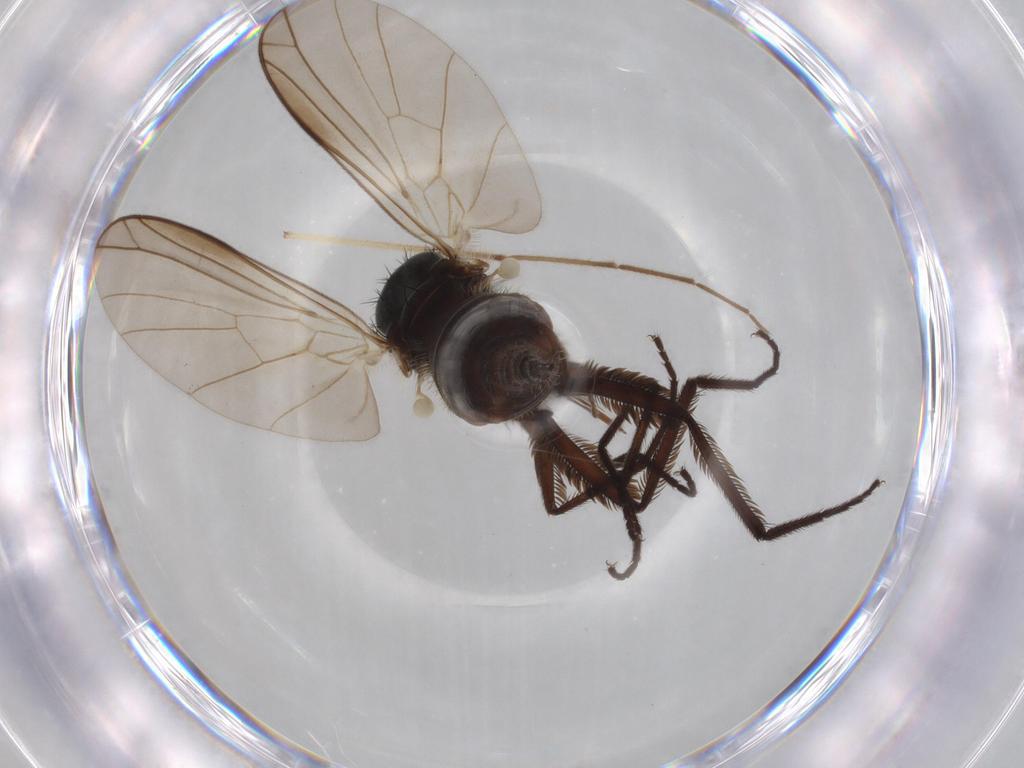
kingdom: Animalia
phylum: Arthropoda
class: Insecta
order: Diptera
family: Empididae
